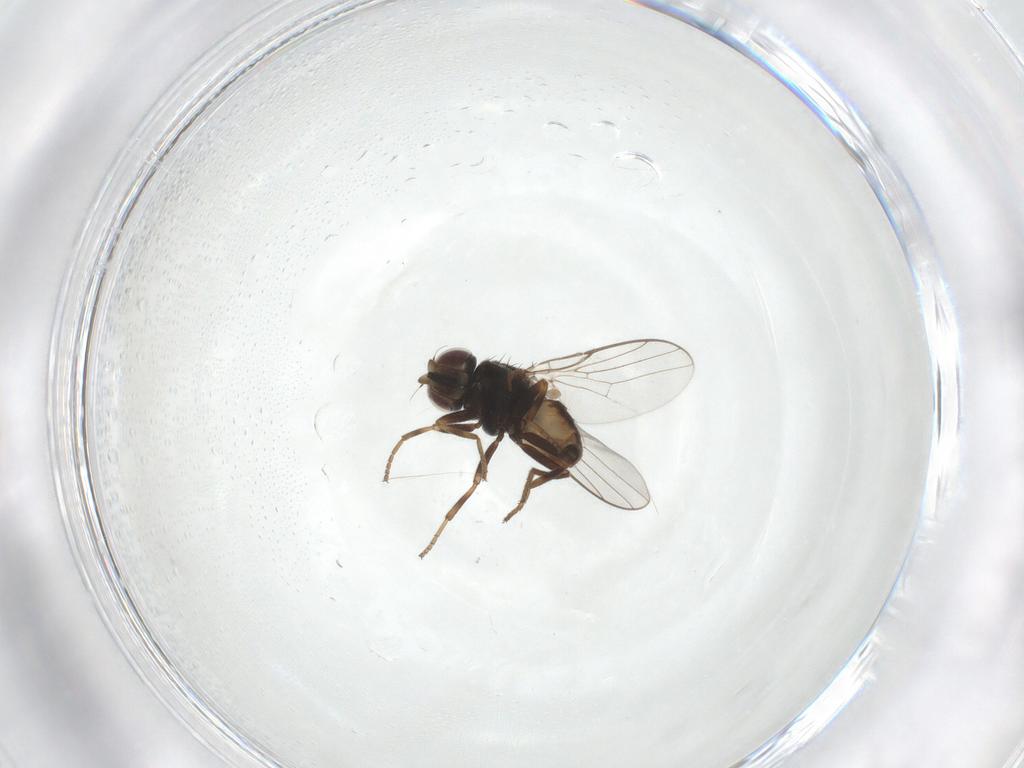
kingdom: Animalia
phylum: Arthropoda
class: Insecta
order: Diptera
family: Chloropidae
